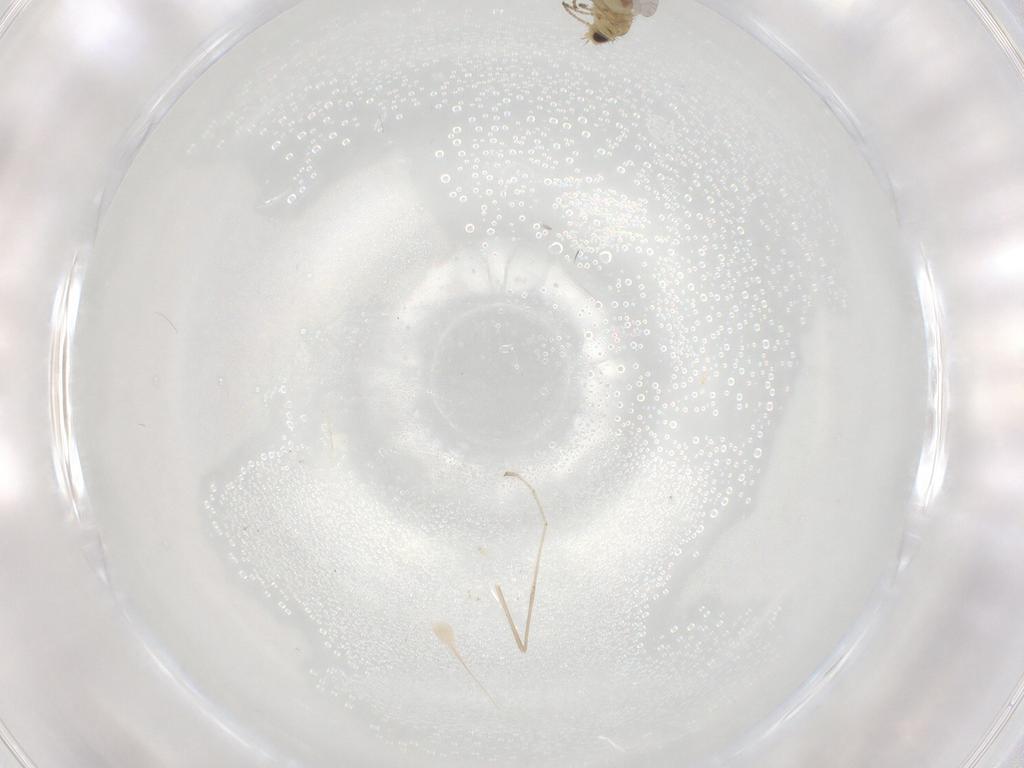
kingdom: Animalia
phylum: Arthropoda
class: Insecta
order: Diptera
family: Agromyzidae
